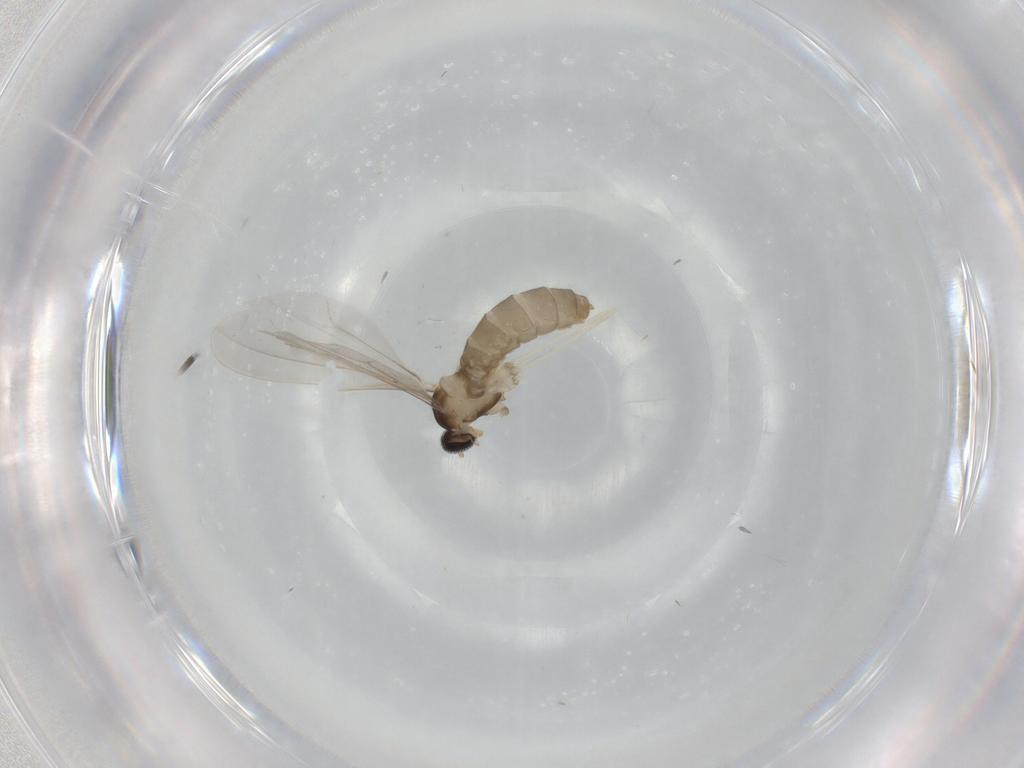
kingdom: Animalia
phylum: Arthropoda
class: Insecta
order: Diptera
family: Cecidomyiidae
